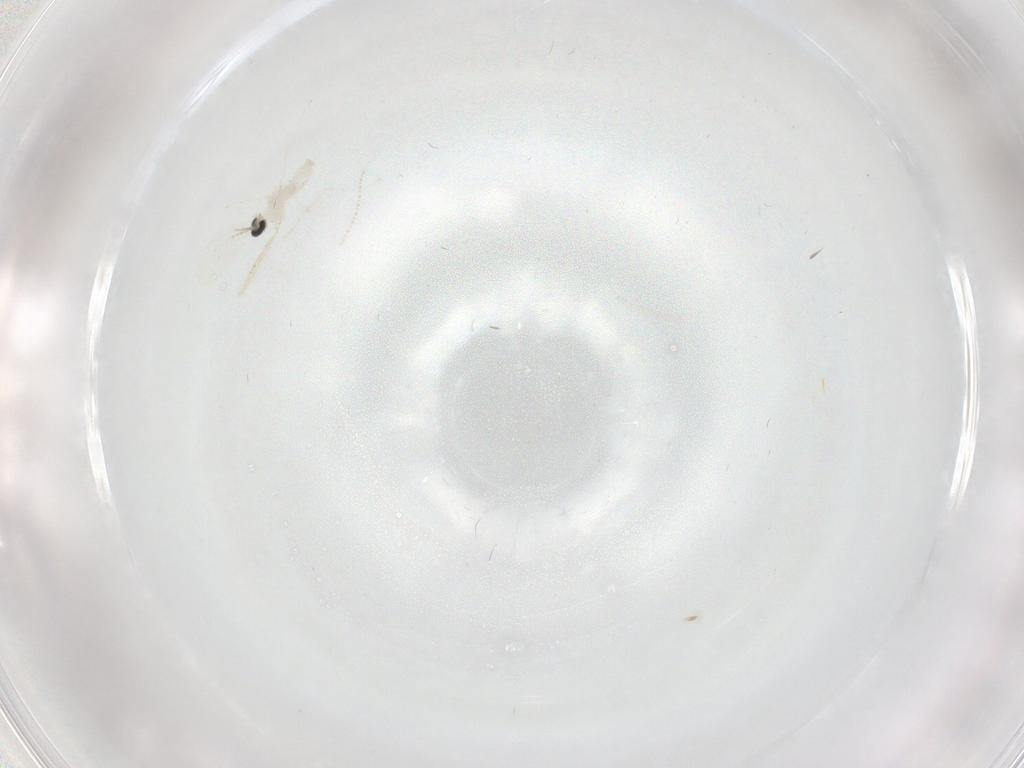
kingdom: Animalia
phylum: Arthropoda
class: Insecta
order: Diptera
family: Cecidomyiidae
